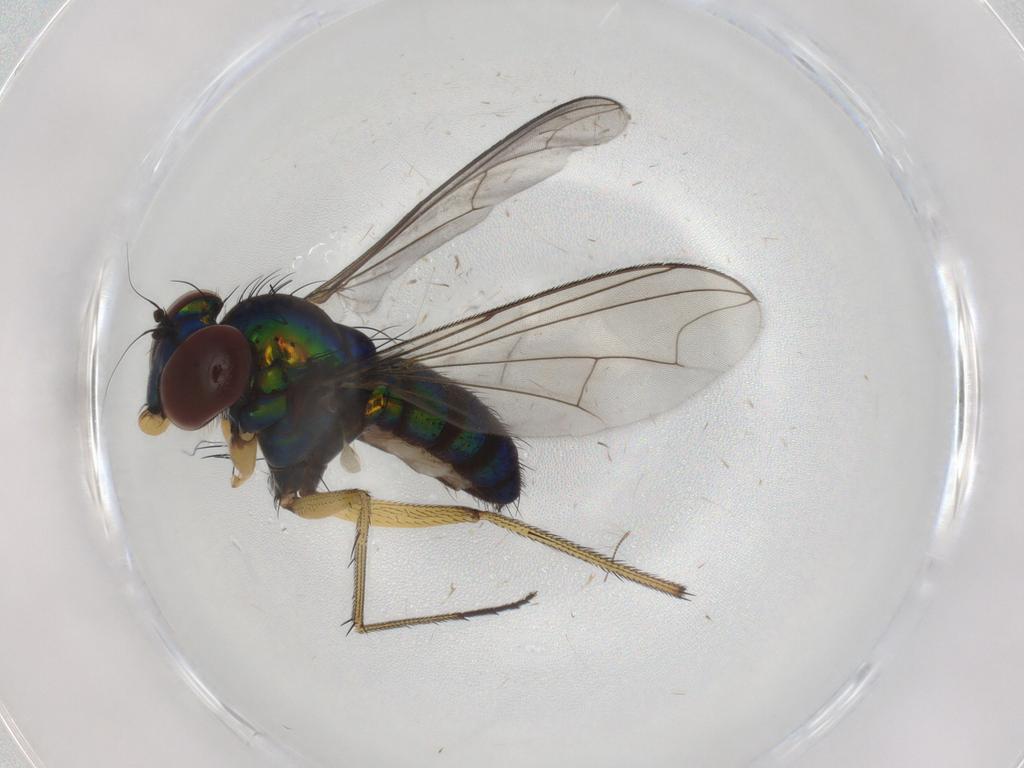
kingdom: Animalia
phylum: Arthropoda
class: Insecta
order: Diptera
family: Dolichopodidae
